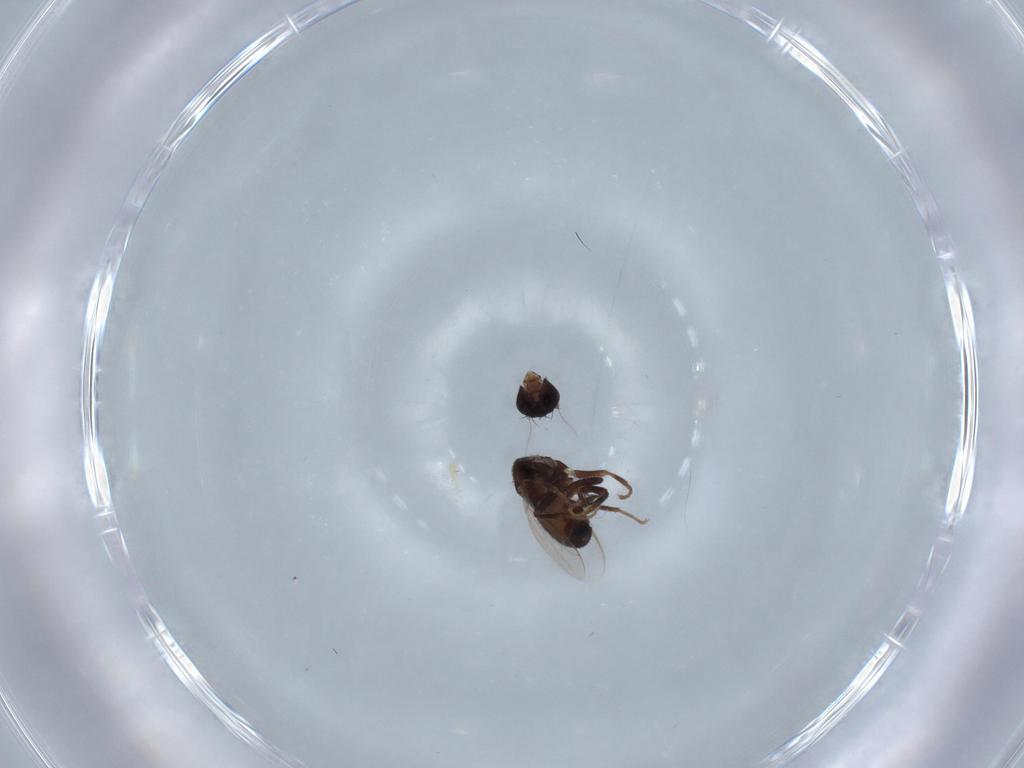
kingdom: Animalia
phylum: Arthropoda
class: Insecta
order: Diptera
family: Sphaeroceridae
